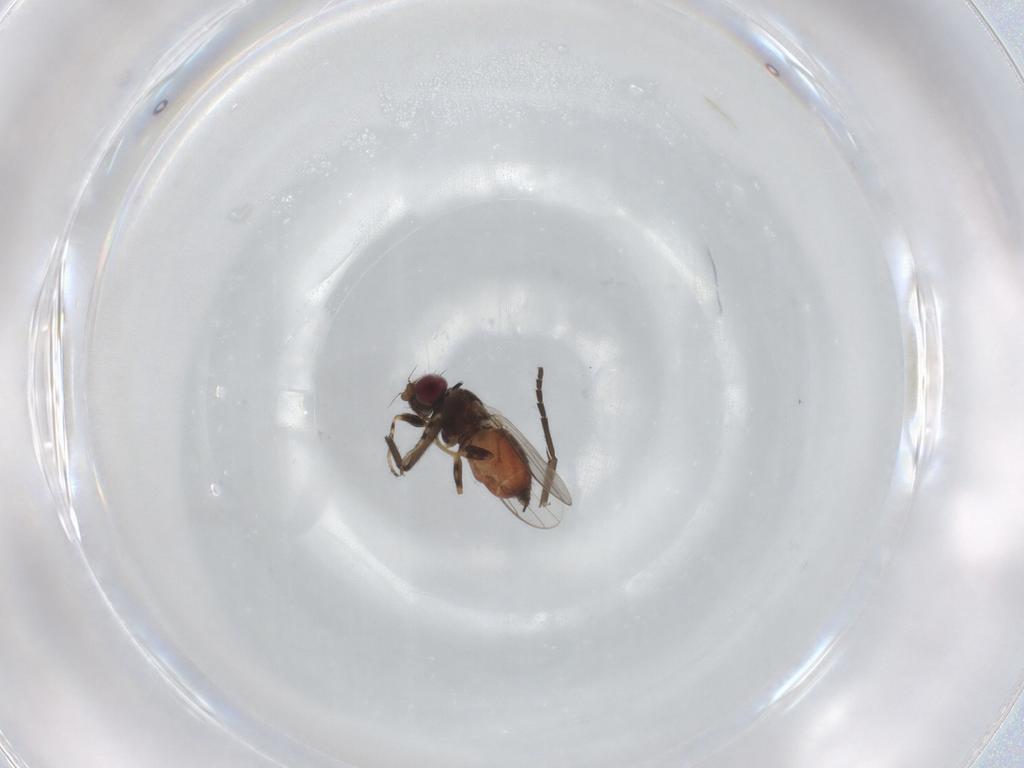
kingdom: Animalia
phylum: Arthropoda
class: Insecta
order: Diptera
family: Chloropidae
